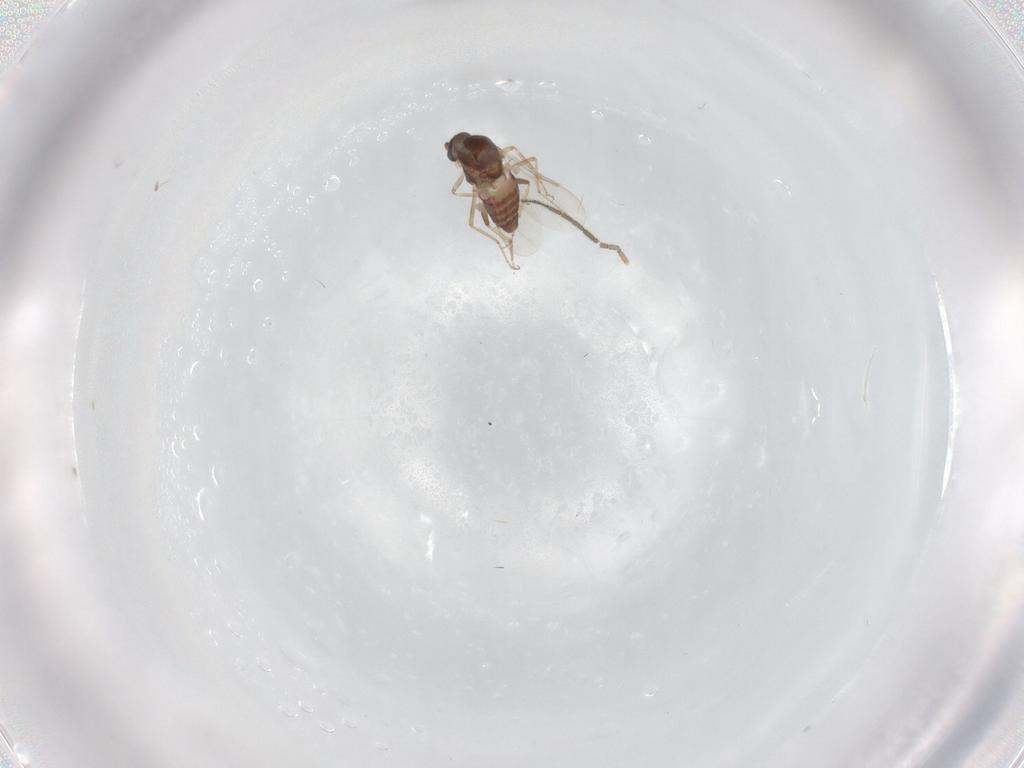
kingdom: Animalia
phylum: Arthropoda
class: Insecta
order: Diptera
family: Ceratopogonidae
